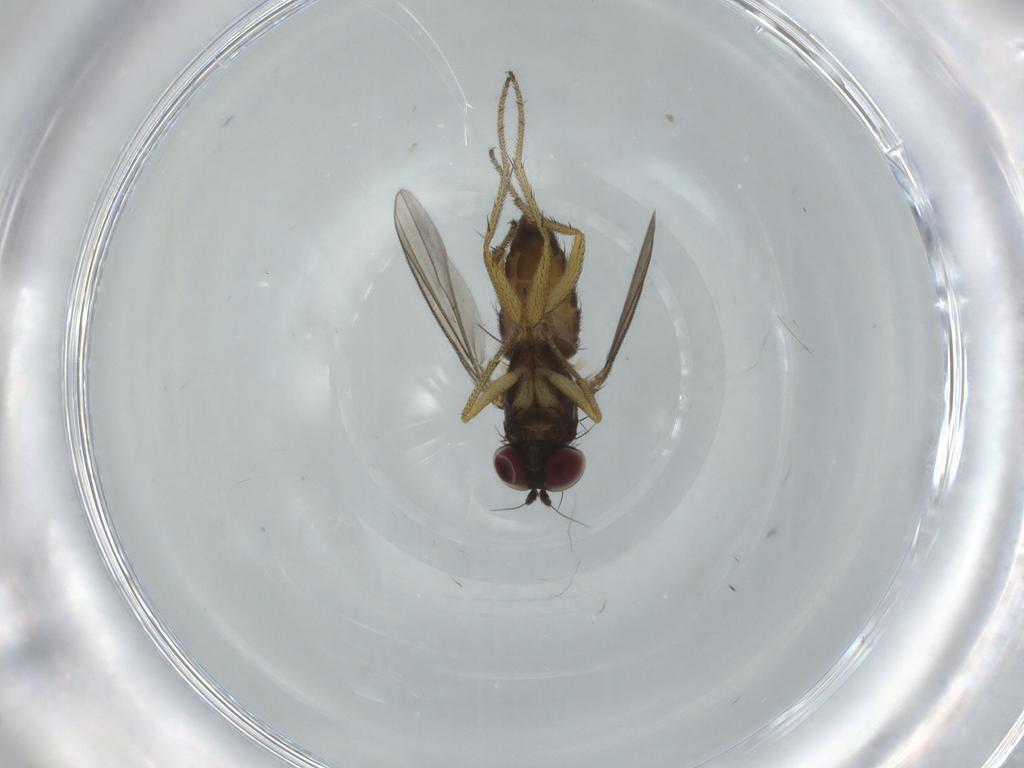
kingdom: Animalia
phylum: Arthropoda
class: Insecta
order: Diptera
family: Dolichopodidae
